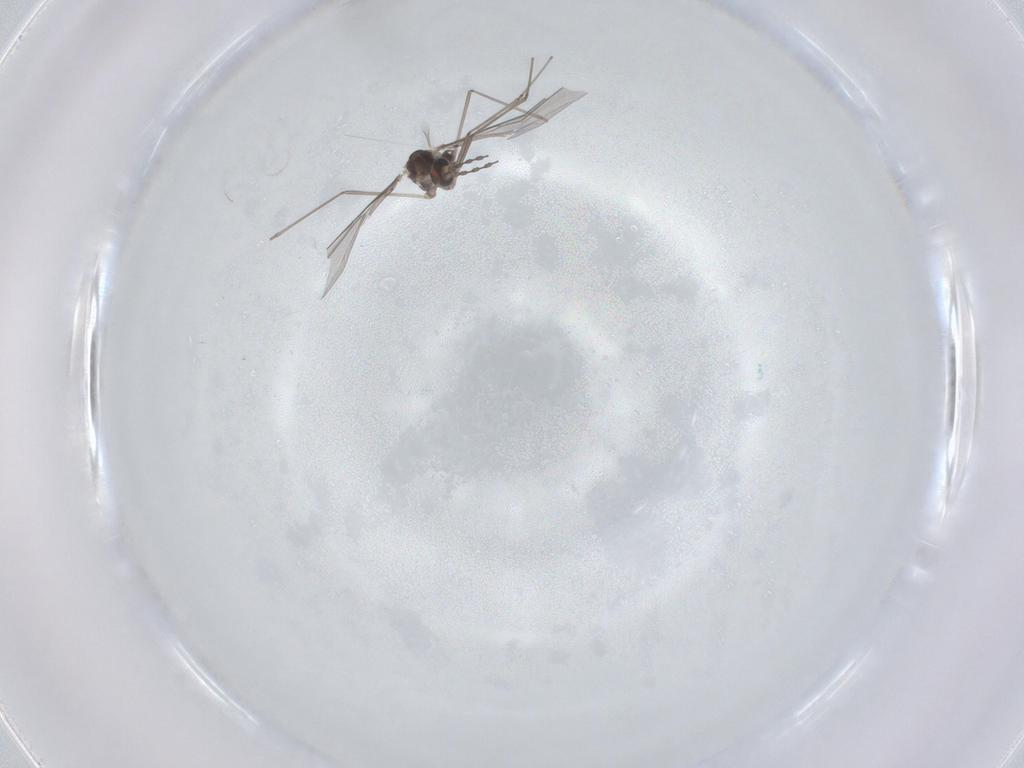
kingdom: Animalia
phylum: Arthropoda
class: Insecta
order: Diptera
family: Cecidomyiidae
